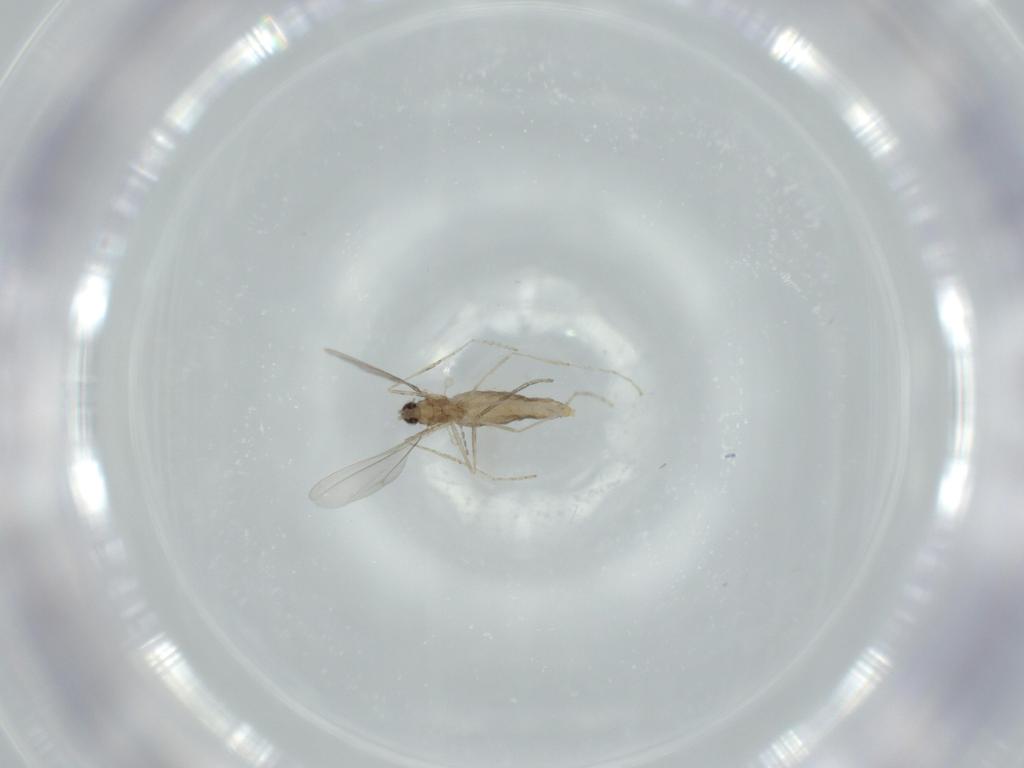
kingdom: Animalia
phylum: Arthropoda
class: Insecta
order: Diptera
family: Cecidomyiidae
